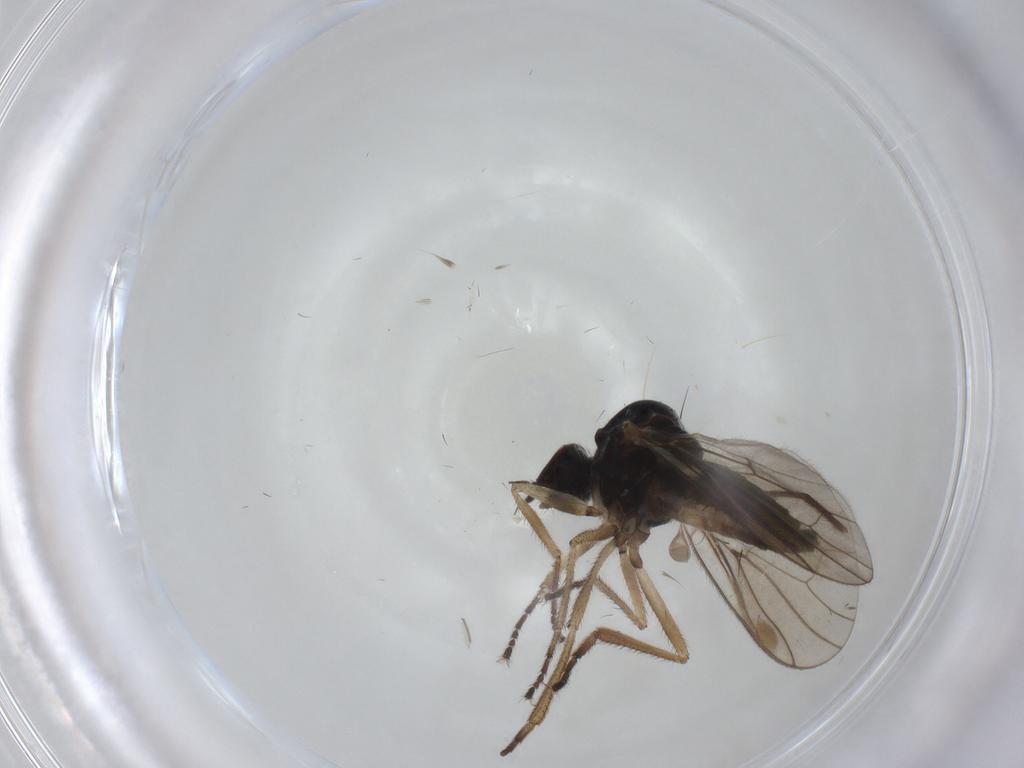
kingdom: Animalia
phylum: Arthropoda
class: Insecta
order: Diptera
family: Hybotidae
